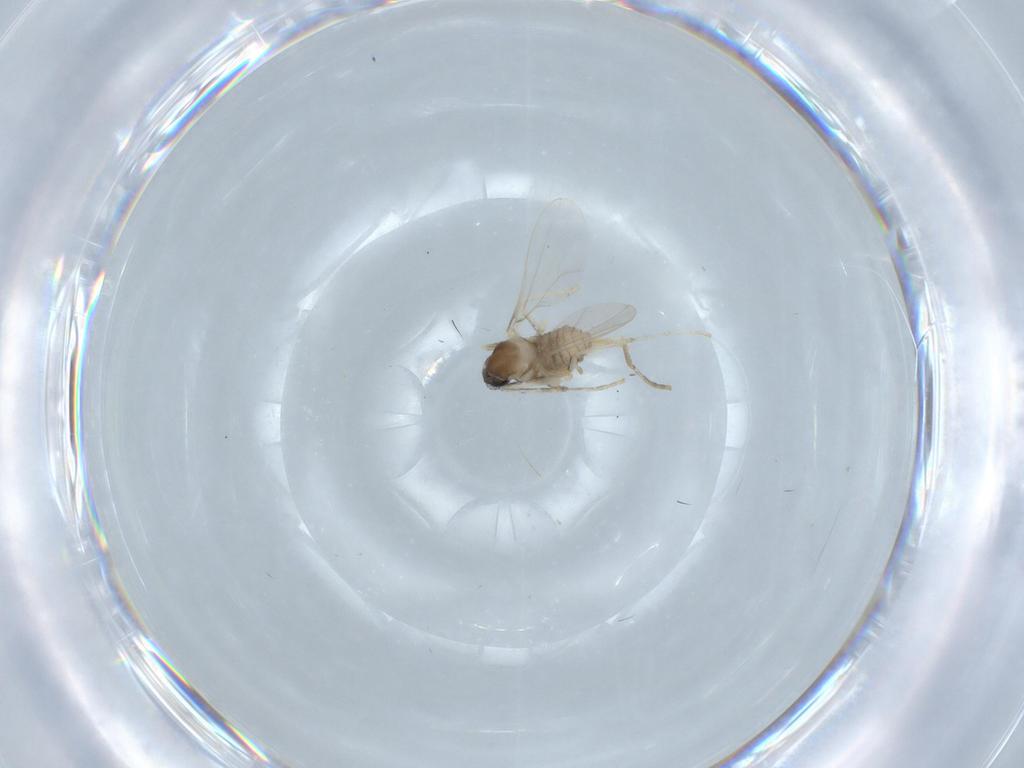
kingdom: Animalia
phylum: Arthropoda
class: Insecta
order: Diptera
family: Cecidomyiidae
